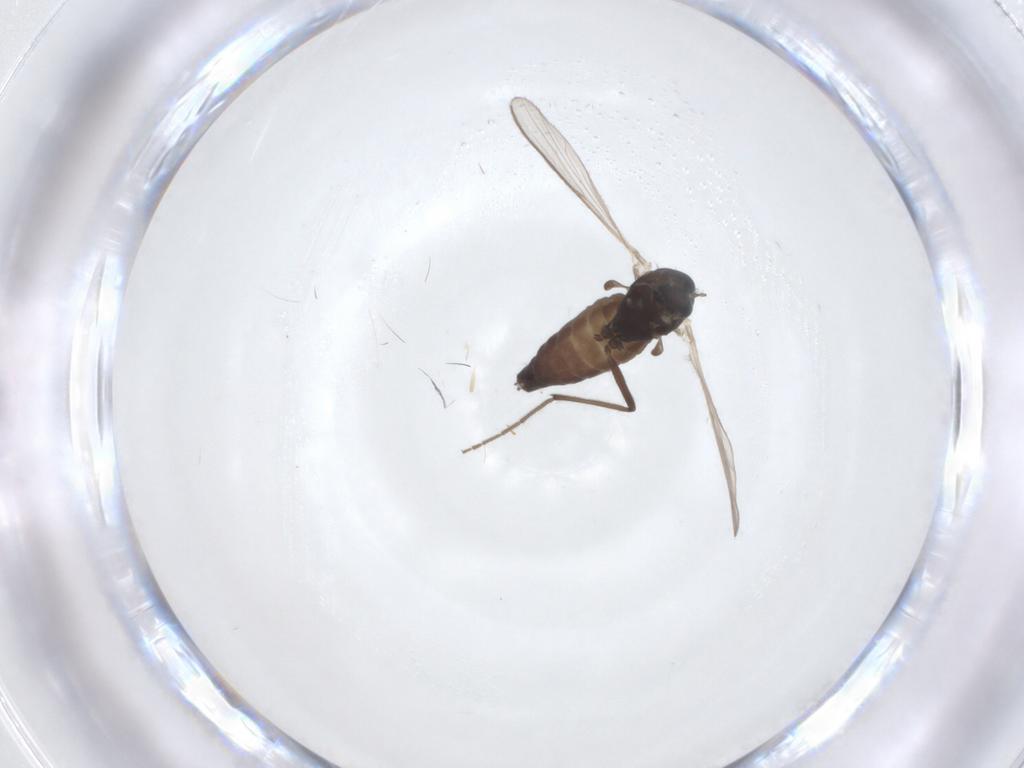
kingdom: Animalia
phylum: Arthropoda
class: Insecta
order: Diptera
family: Chironomidae
